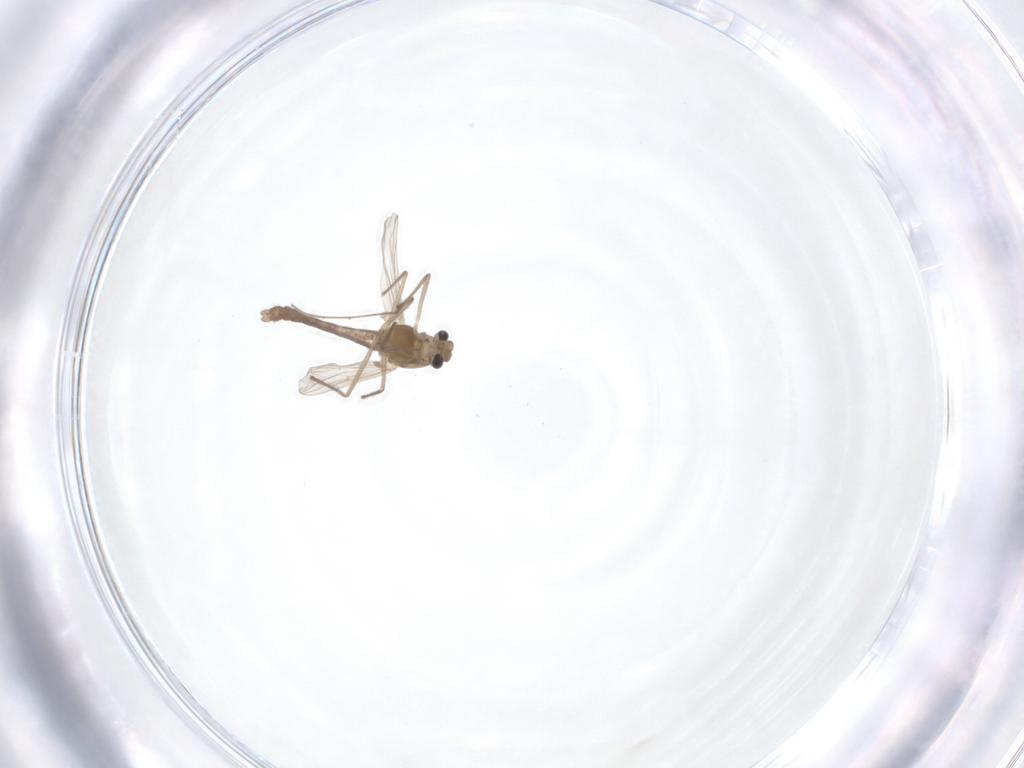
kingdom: Animalia
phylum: Arthropoda
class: Insecta
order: Diptera
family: Chironomidae
